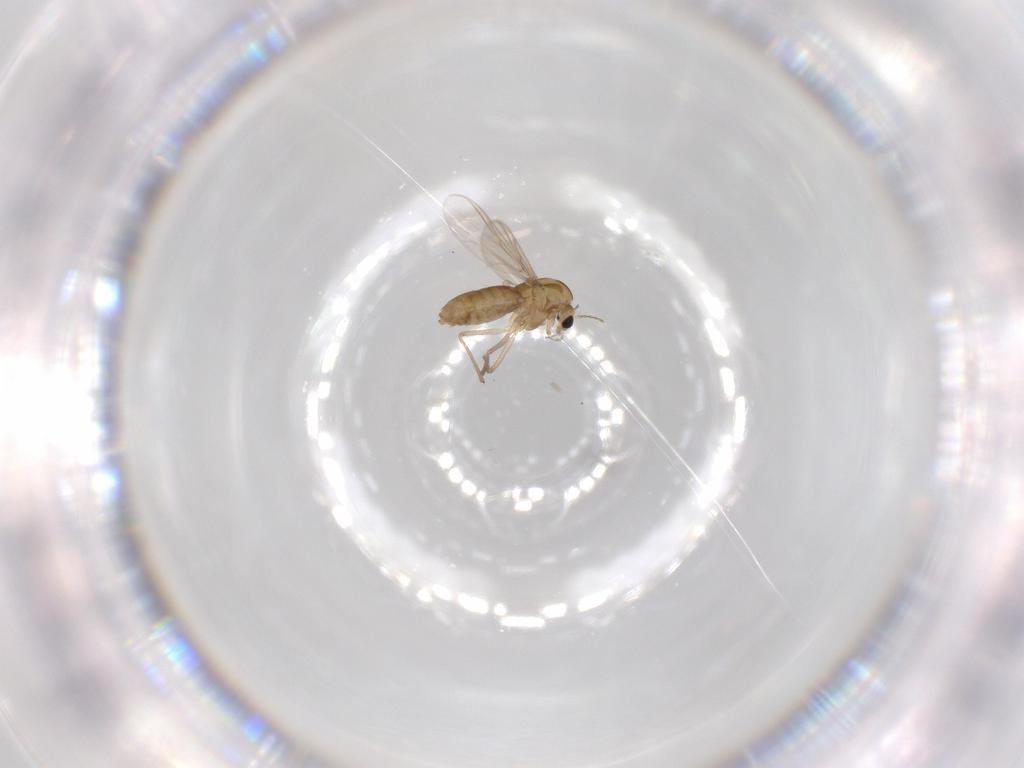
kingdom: Animalia
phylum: Arthropoda
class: Insecta
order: Diptera
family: Chironomidae
